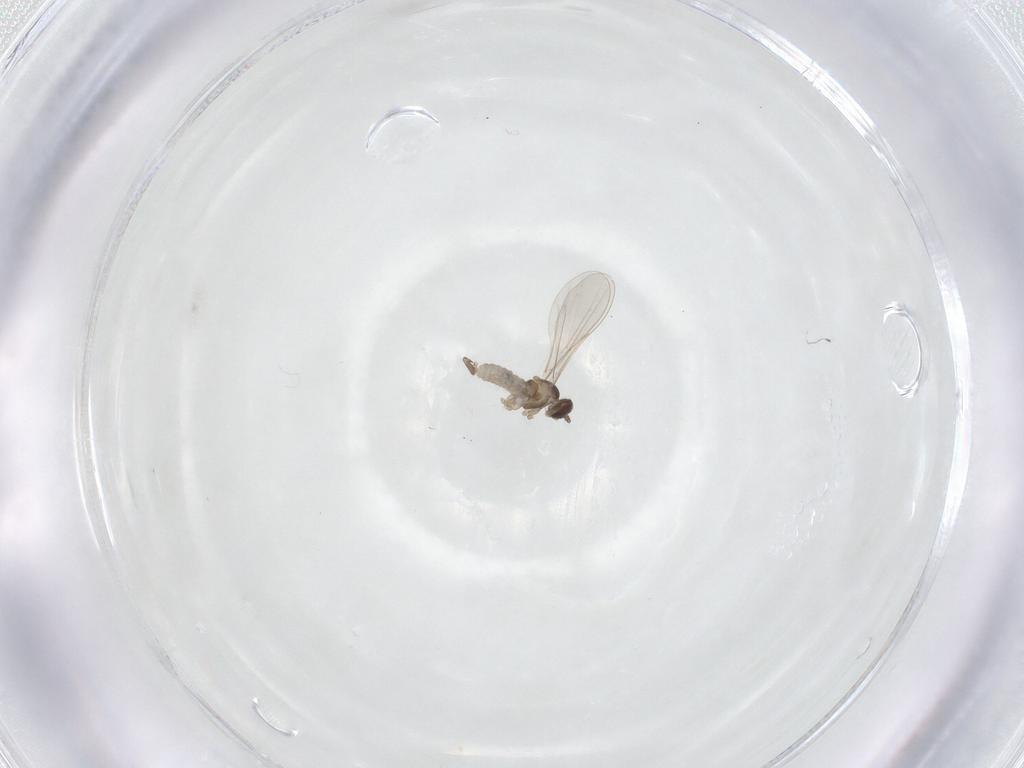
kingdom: Animalia
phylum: Arthropoda
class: Insecta
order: Diptera
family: Cecidomyiidae
